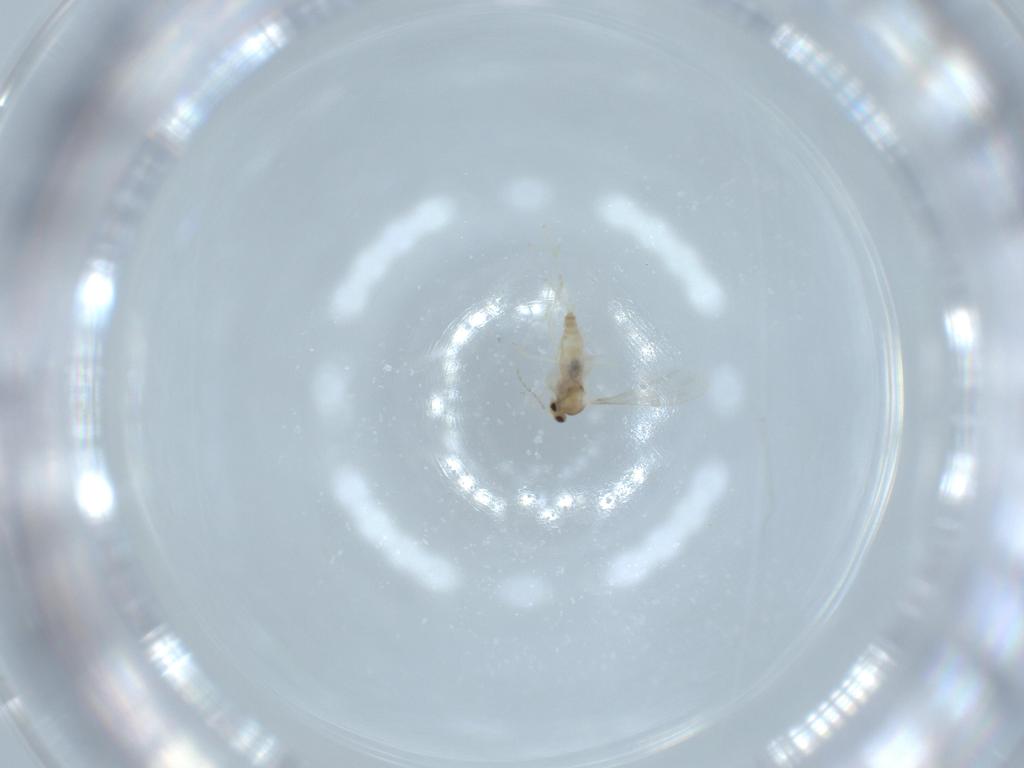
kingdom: Animalia
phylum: Arthropoda
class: Insecta
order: Diptera
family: Cecidomyiidae
